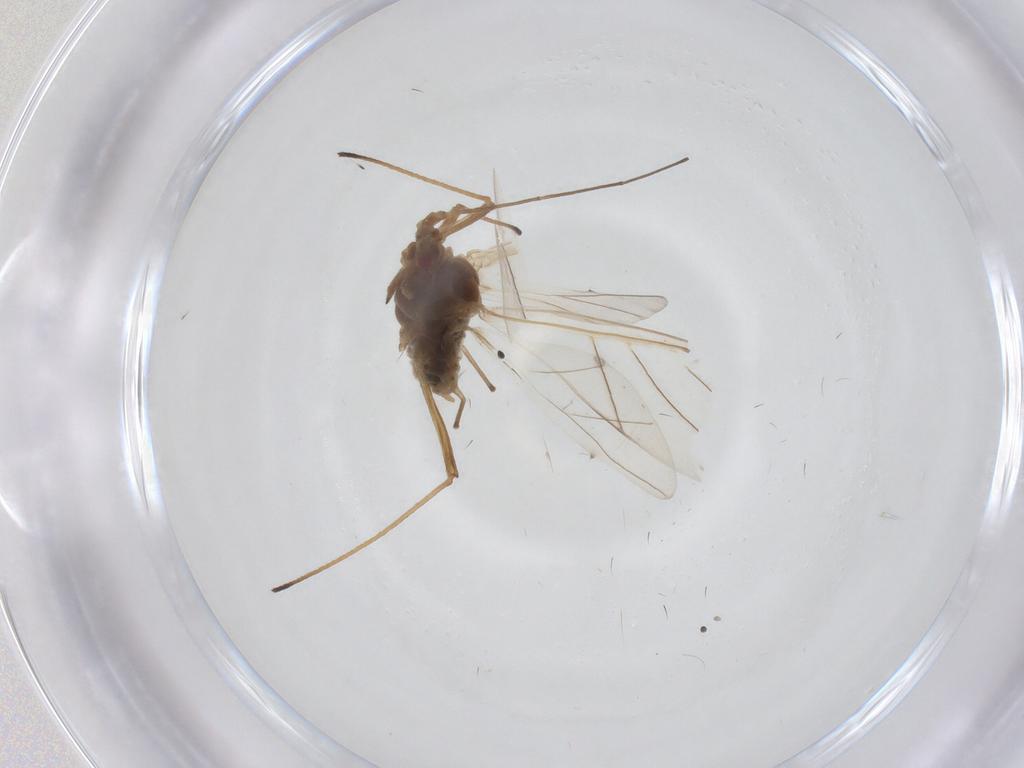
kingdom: Animalia
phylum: Arthropoda
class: Insecta
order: Hemiptera
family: Aphididae
